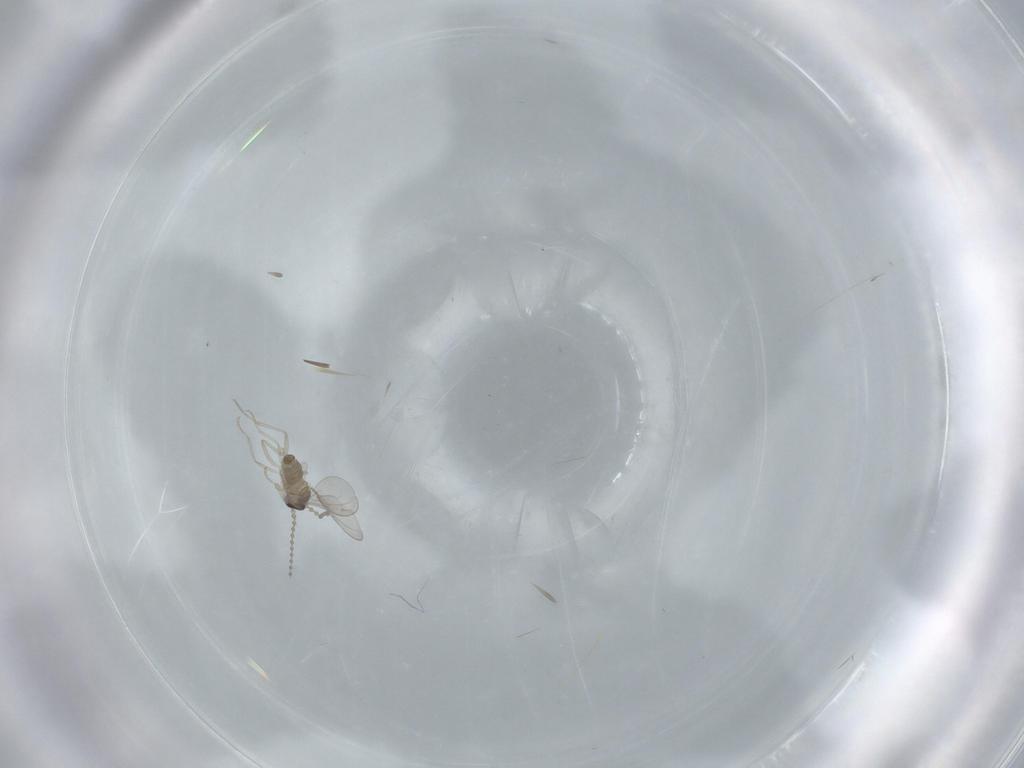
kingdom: Animalia
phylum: Arthropoda
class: Insecta
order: Diptera
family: Cecidomyiidae
